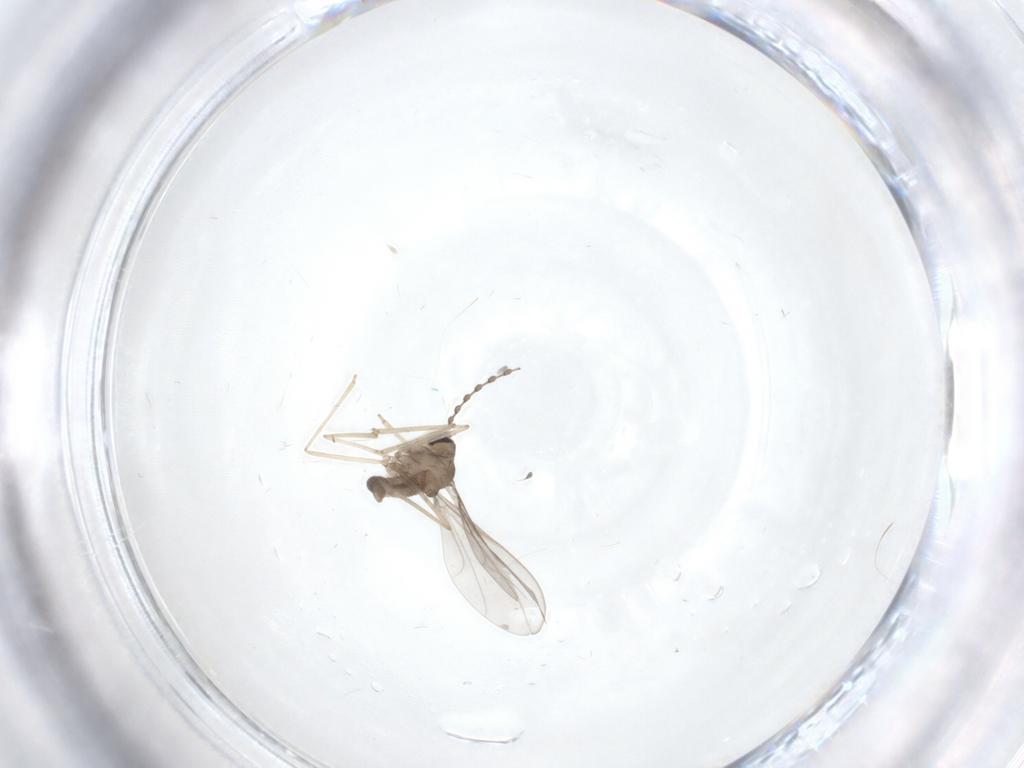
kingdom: Animalia
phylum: Arthropoda
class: Insecta
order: Diptera
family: Cecidomyiidae
